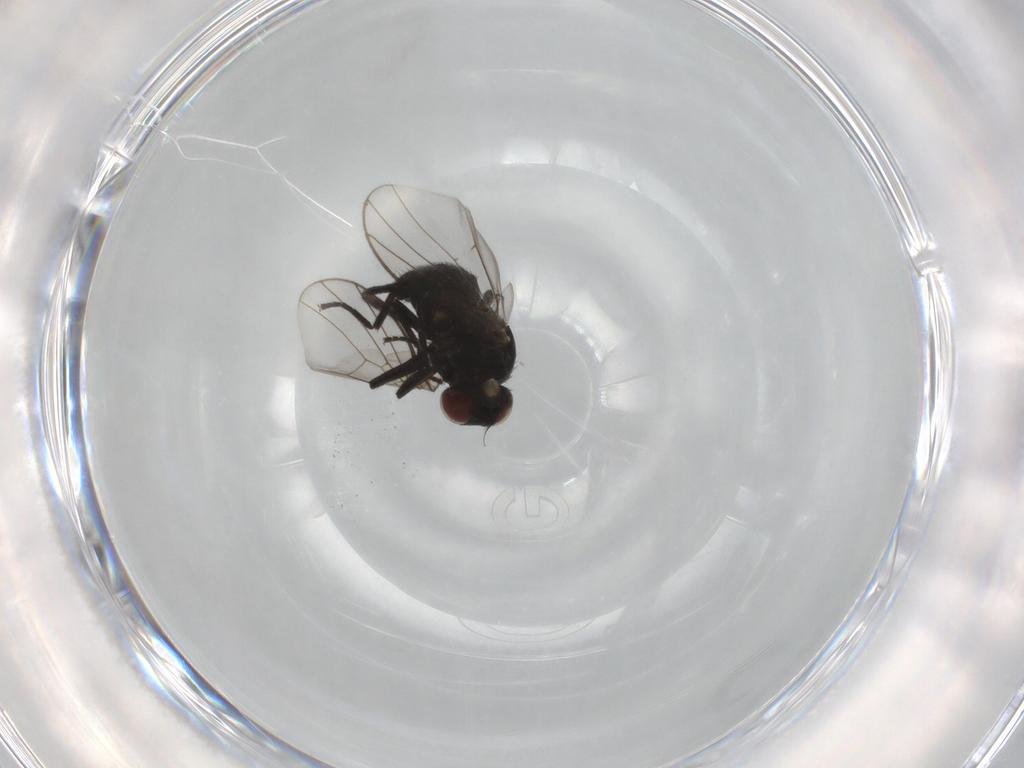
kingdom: Animalia
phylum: Arthropoda
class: Insecta
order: Diptera
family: Agromyzidae
